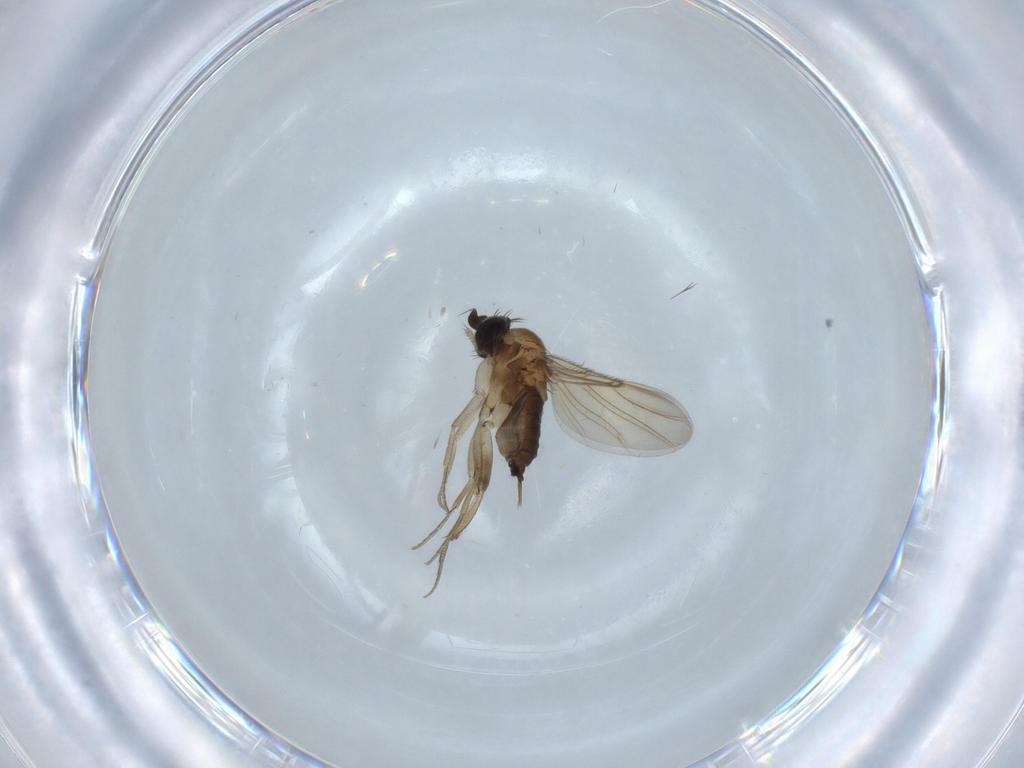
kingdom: Animalia
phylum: Arthropoda
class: Insecta
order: Diptera
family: Phoridae
